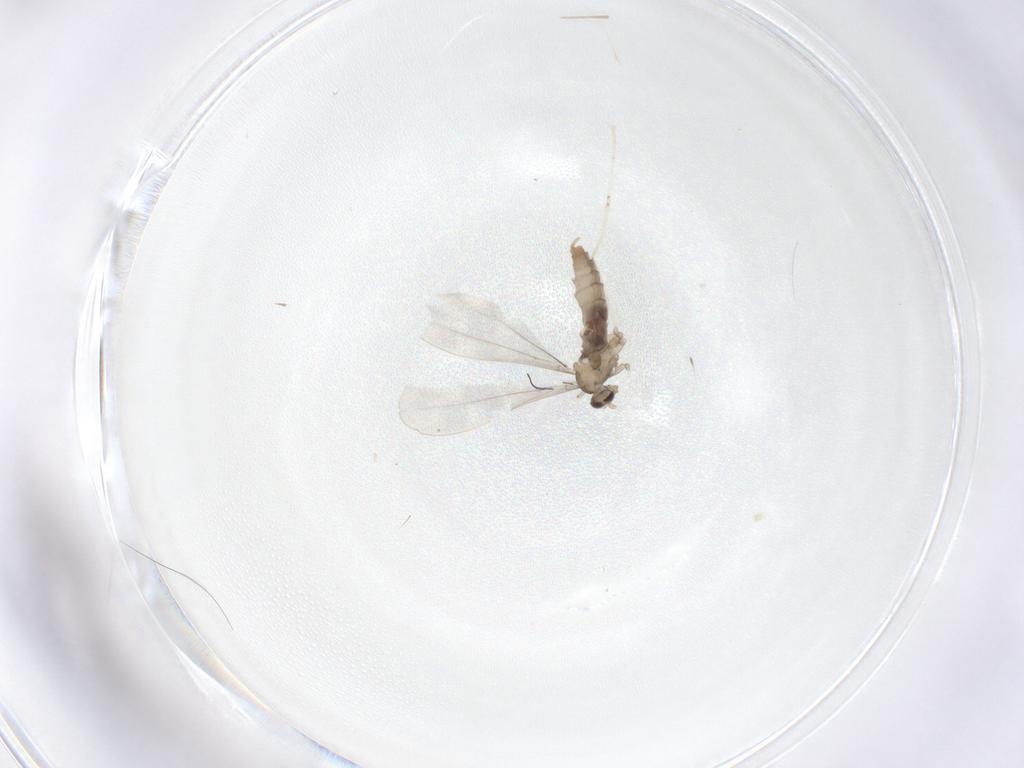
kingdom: Animalia
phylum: Arthropoda
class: Insecta
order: Diptera
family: Cecidomyiidae
